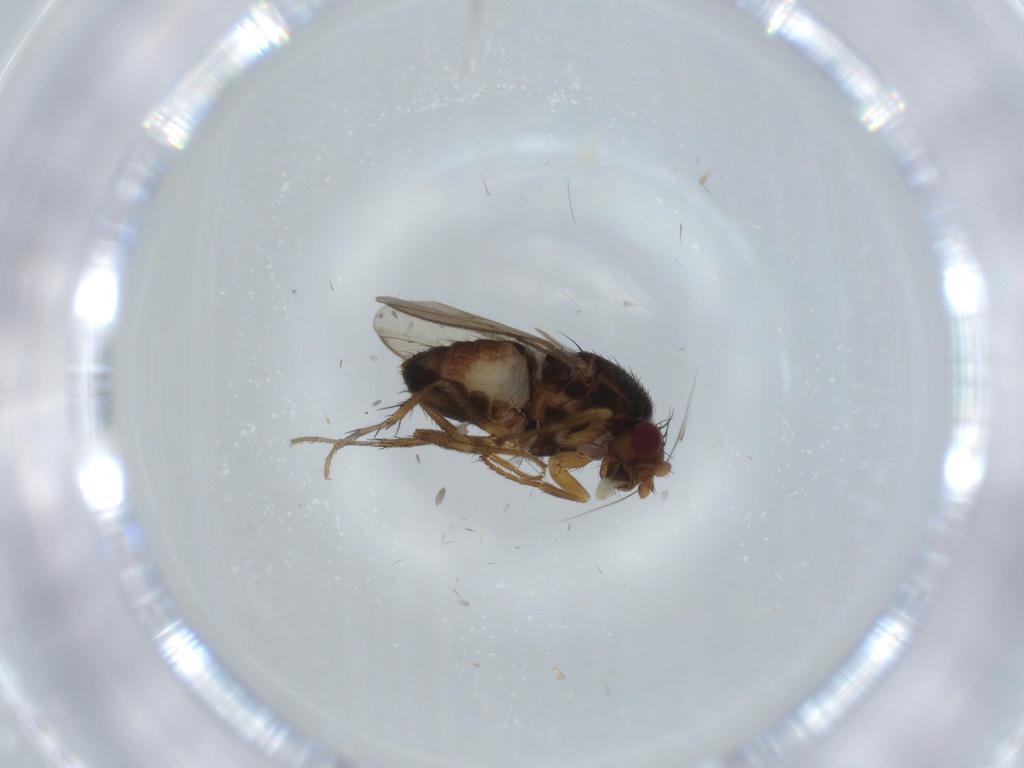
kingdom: Animalia
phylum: Arthropoda
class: Insecta
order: Diptera
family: Sphaeroceridae
